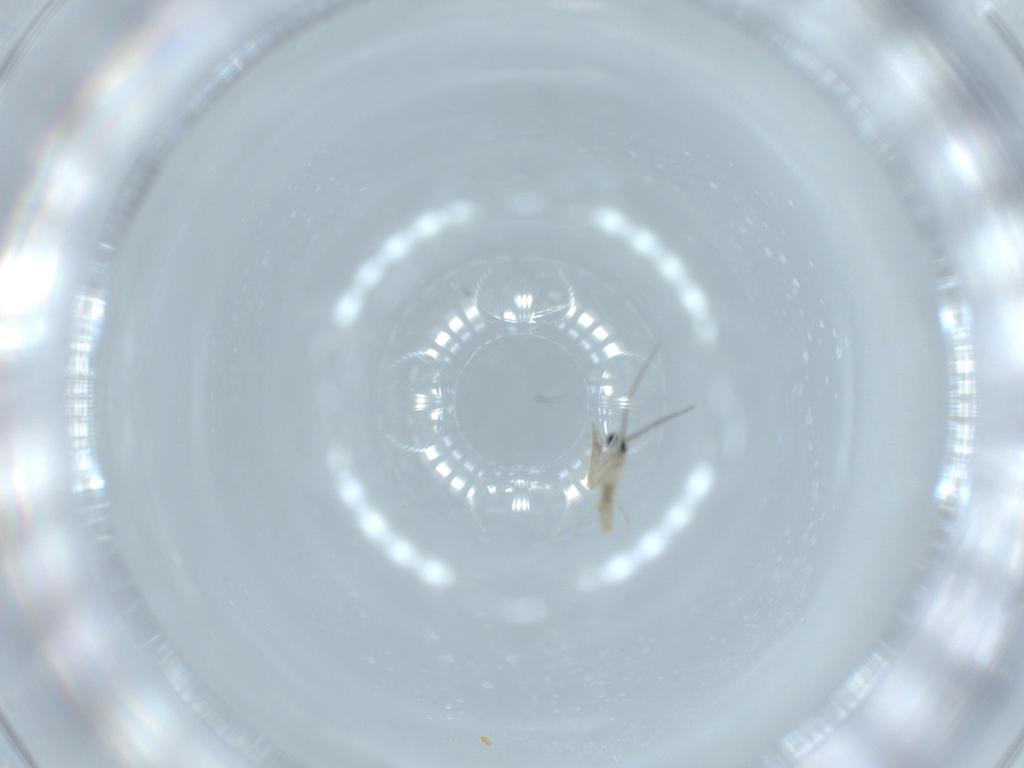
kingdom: Animalia
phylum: Arthropoda
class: Insecta
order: Diptera
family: Cecidomyiidae
